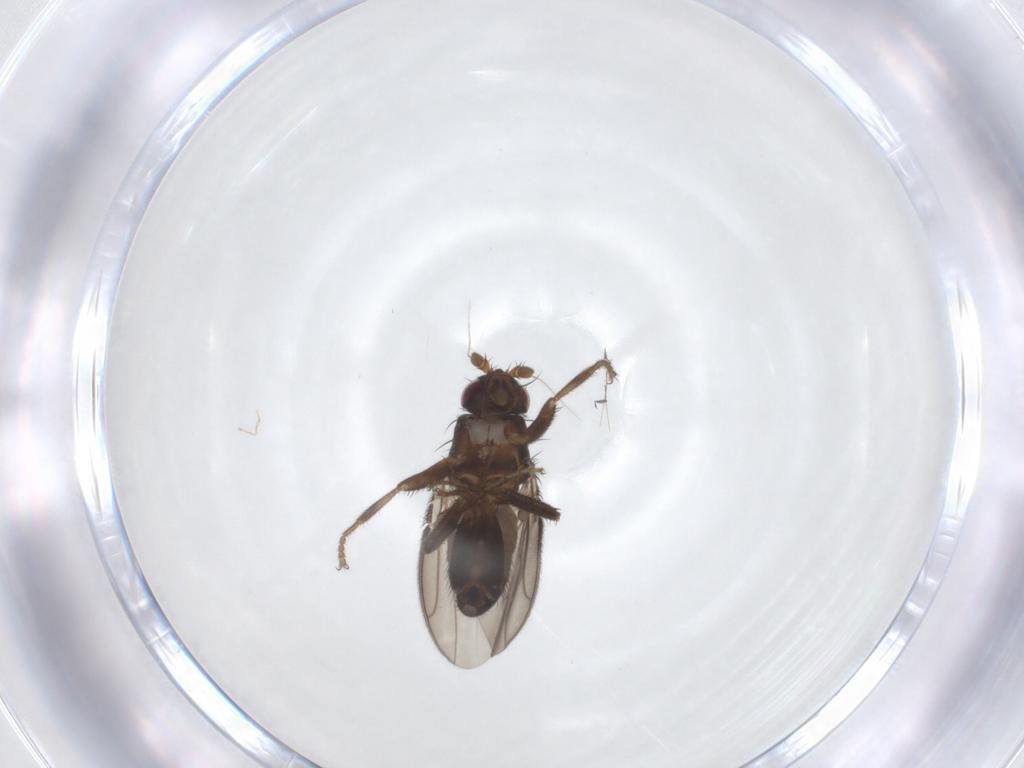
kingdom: Animalia
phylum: Arthropoda
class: Insecta
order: Diptera
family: Sphaeroceridae
